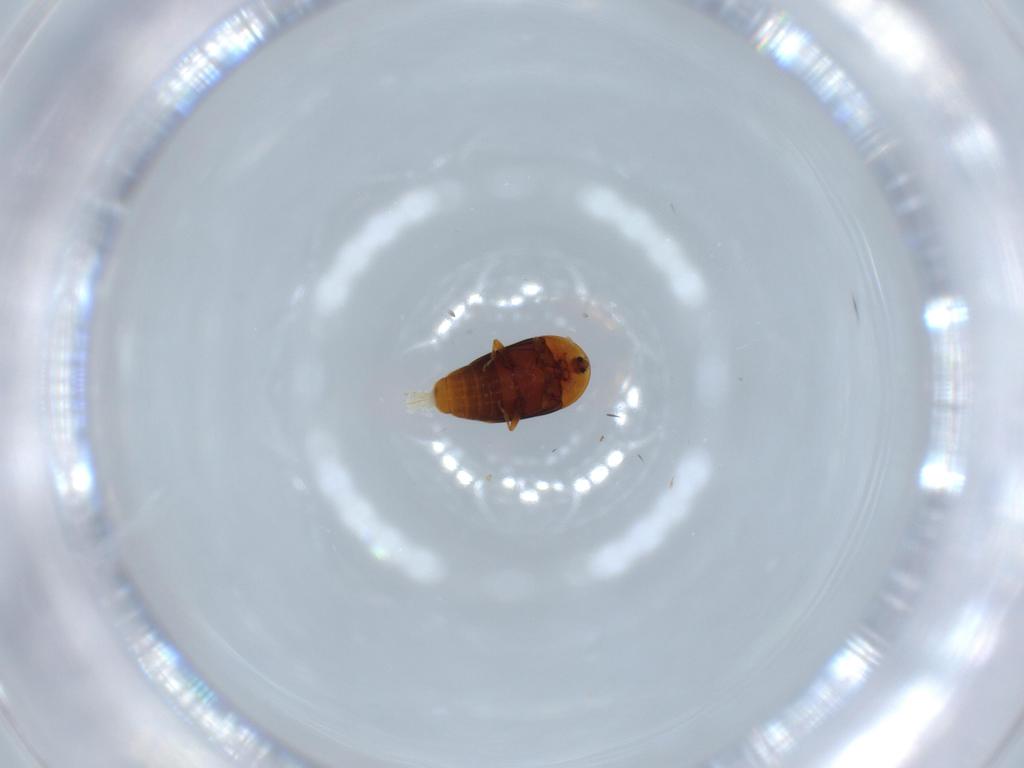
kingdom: Animalia
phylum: Arthropoda
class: Insecta
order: Coleoptera
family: Corylophidae
